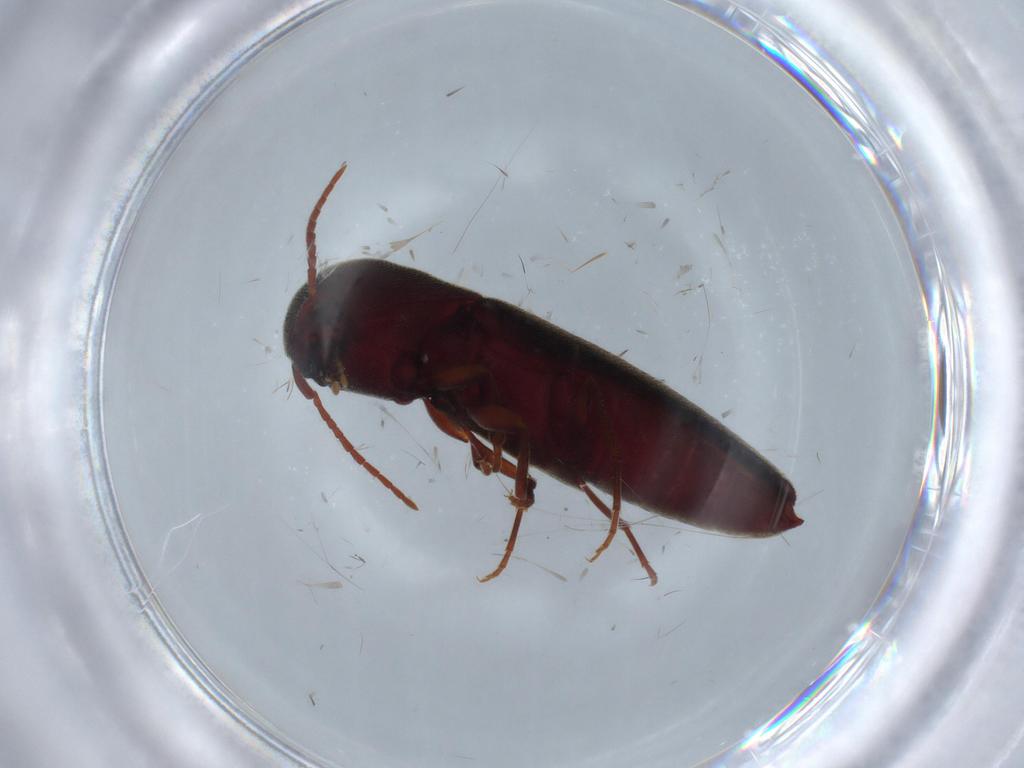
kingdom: Animalia
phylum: Arthropoda
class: Insecta
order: Coleoptera
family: Eucnemidae
